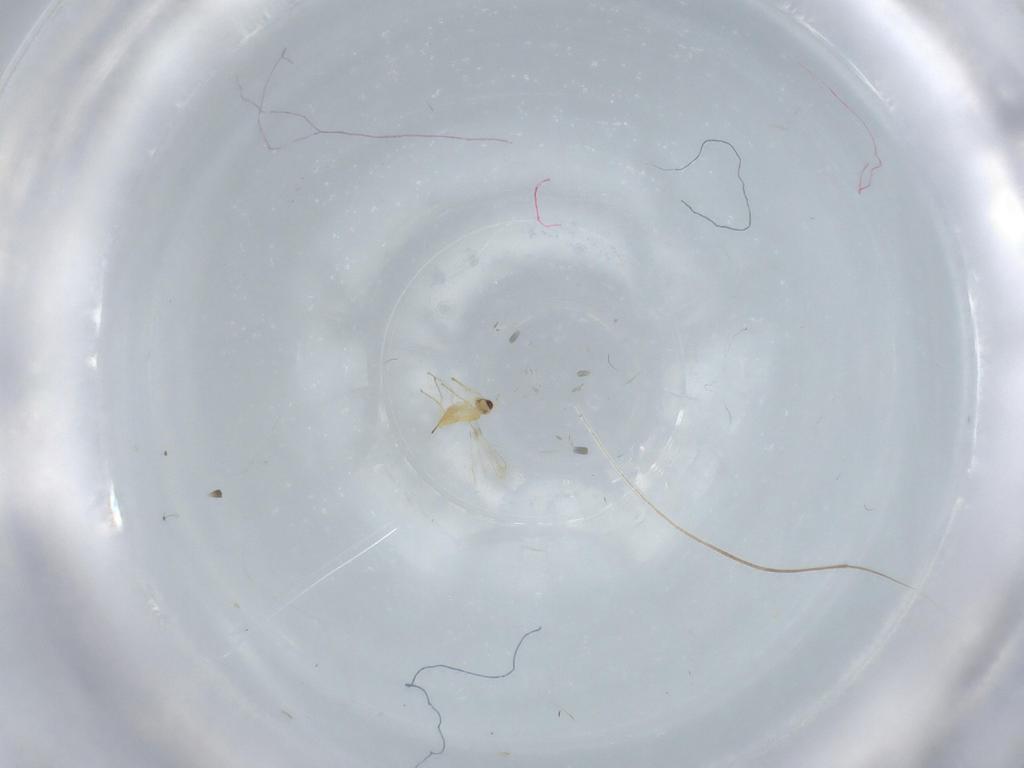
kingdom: Animalia
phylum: Arthropoda
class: Insecta
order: Hymenoptera
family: Mymaridae
